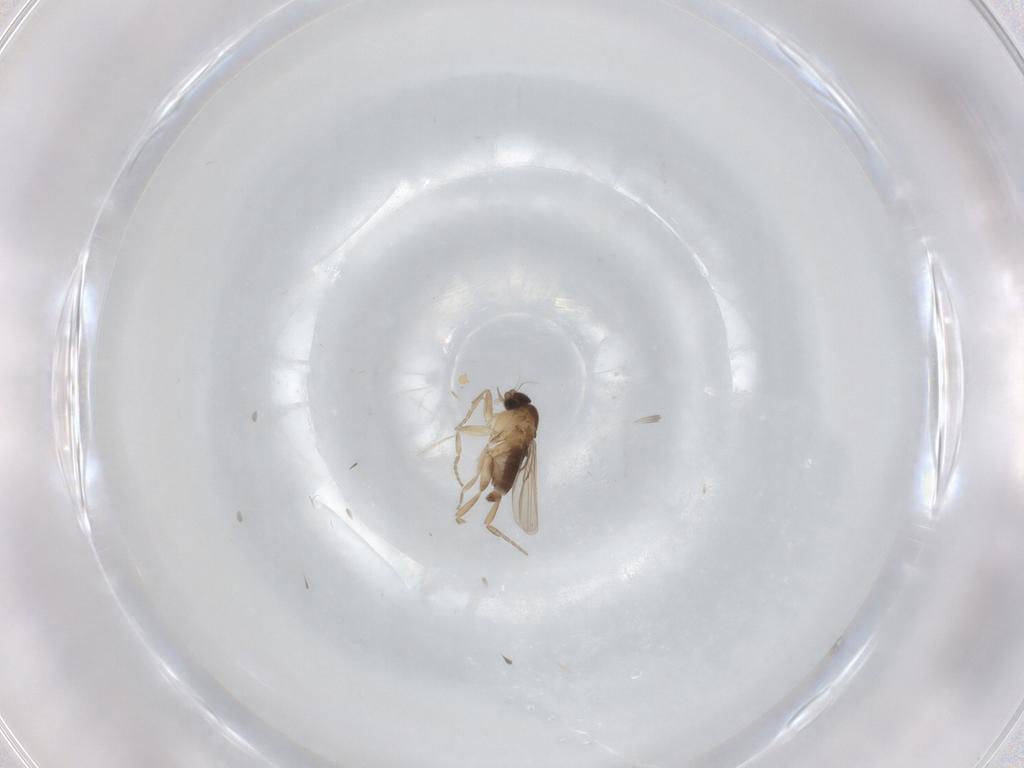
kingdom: Animalia
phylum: Arthropoda
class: Insecta
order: Diptera
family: Phoridae
